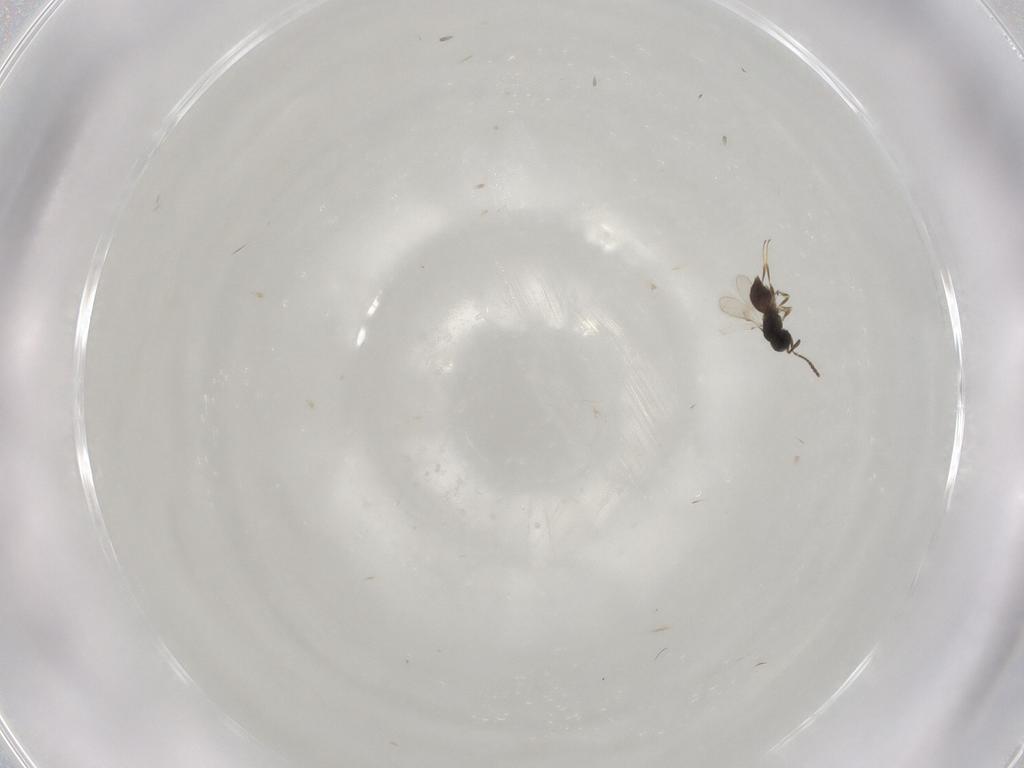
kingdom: Animalia
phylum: Arthropoda
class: Insecta
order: Hymenoptera
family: Scelionidae
